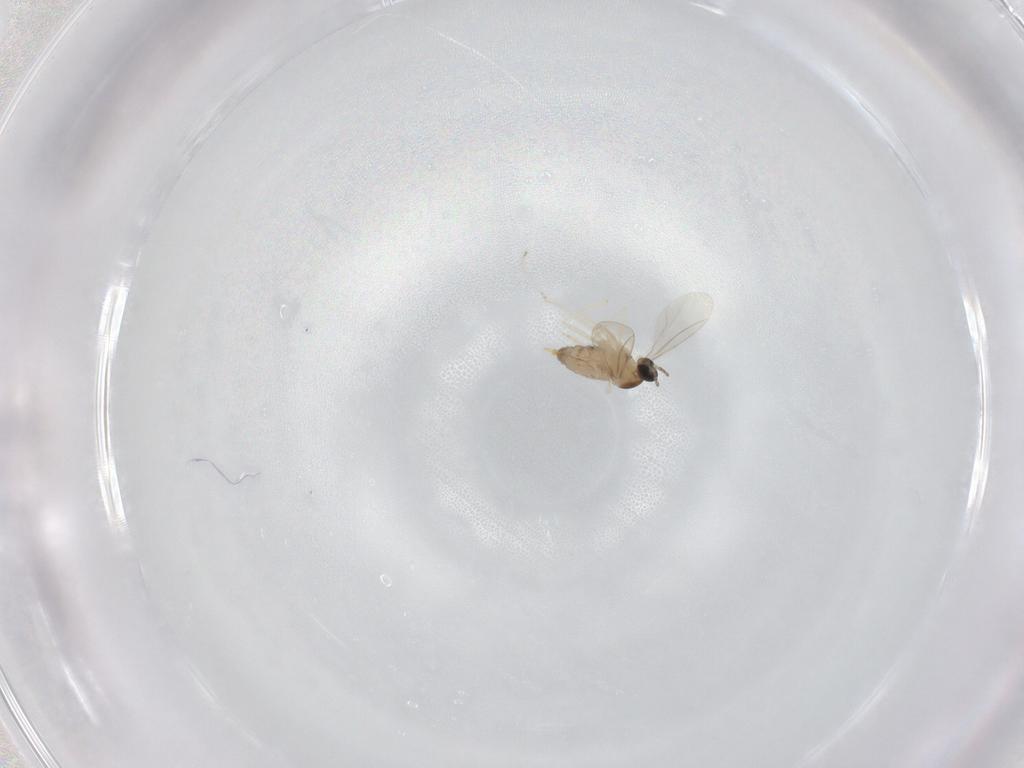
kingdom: Animalia
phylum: Arthropoda
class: Insecta
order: Diptera
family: Cecidomyiidae
